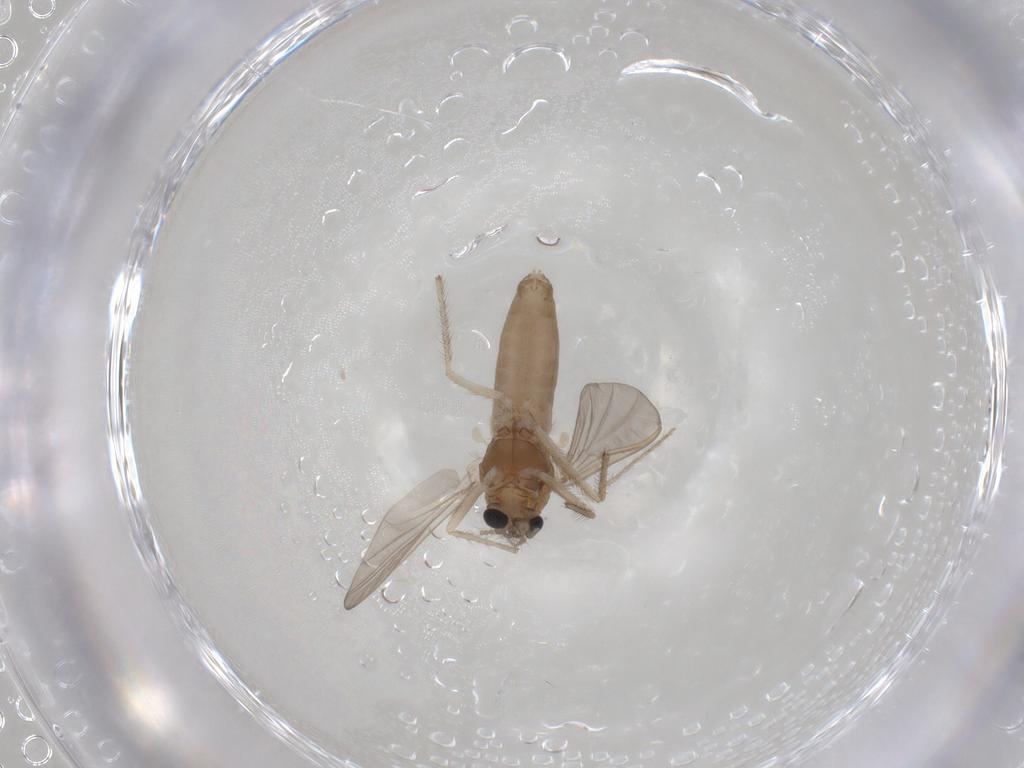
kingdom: Animalia
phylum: Arthropoda
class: Insecta
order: Diptera
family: Chironomidae
